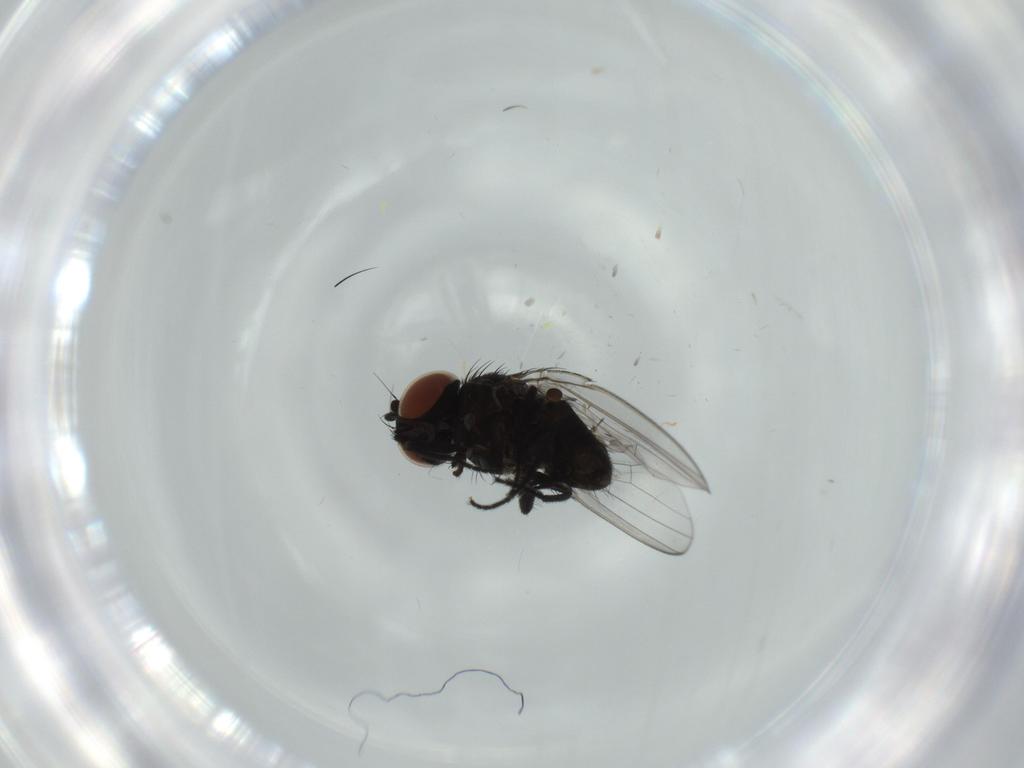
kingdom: Animalia
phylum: Arthropoda
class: Insecta
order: Diptera
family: Milichiidae
